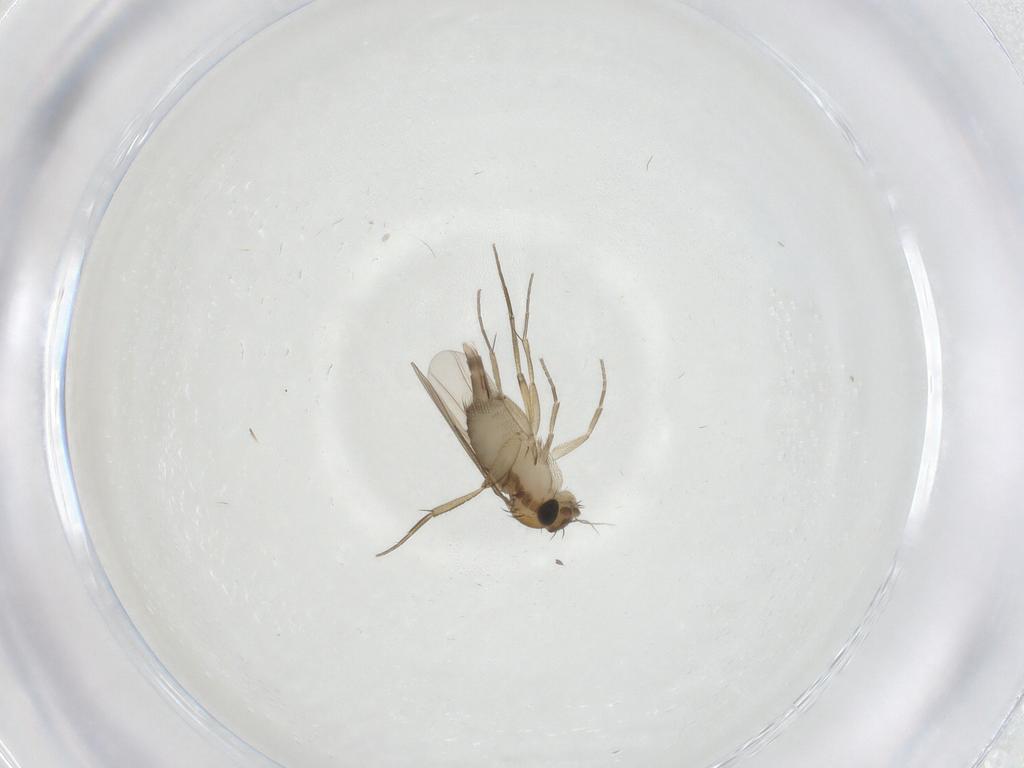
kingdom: Animalia
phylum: Arthropoda
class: Insecta
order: Diptera
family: Phoridae
